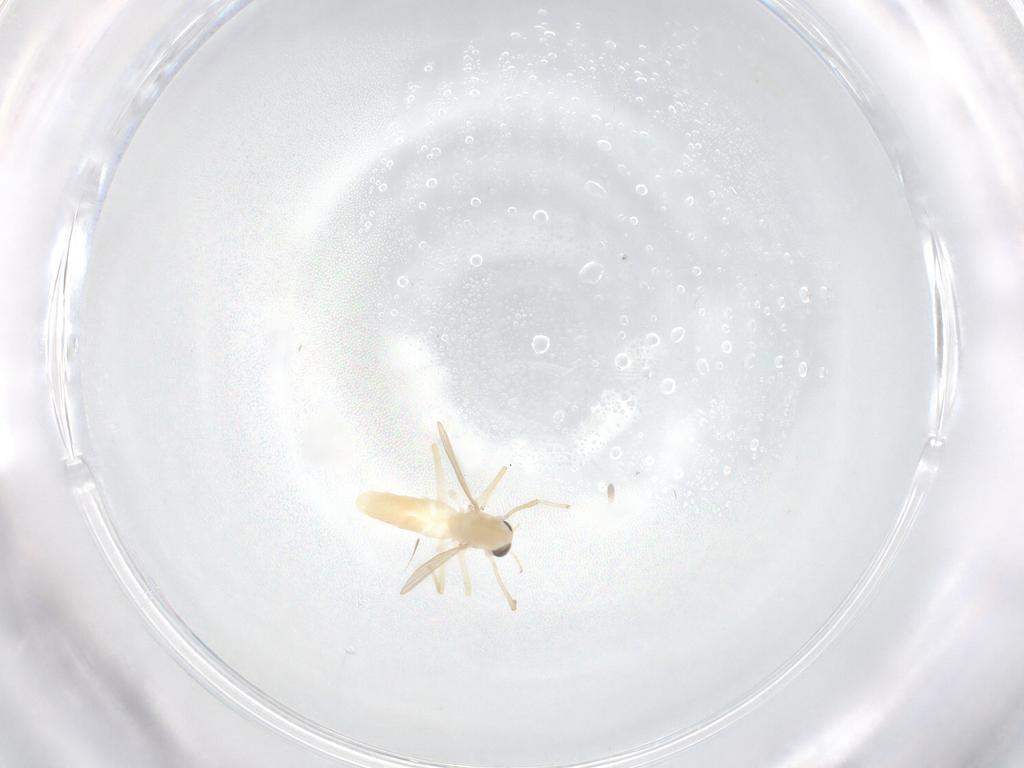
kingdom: Animalia
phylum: Arthropoda
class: Insecta
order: Diptera
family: Chironomidae
